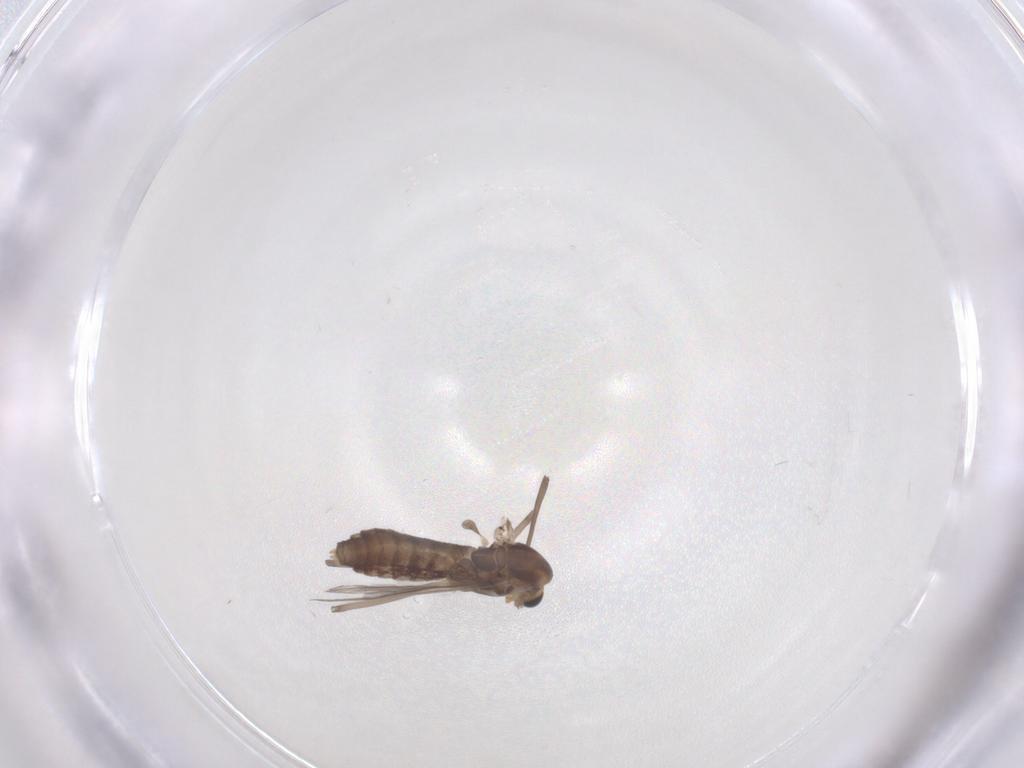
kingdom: Animalia
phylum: Arthropoda
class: Insecta
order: Diptera
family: Chironomidae
